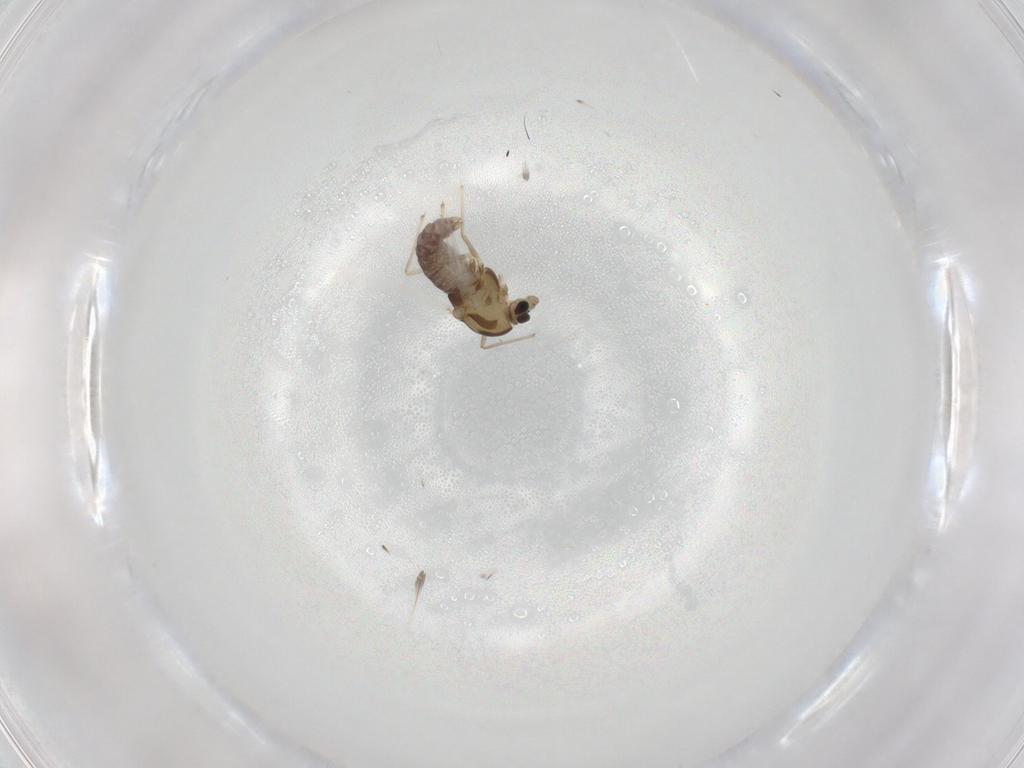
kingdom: Animalia
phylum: Arthropoda
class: Insecta
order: Diptera
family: Chironomidae
